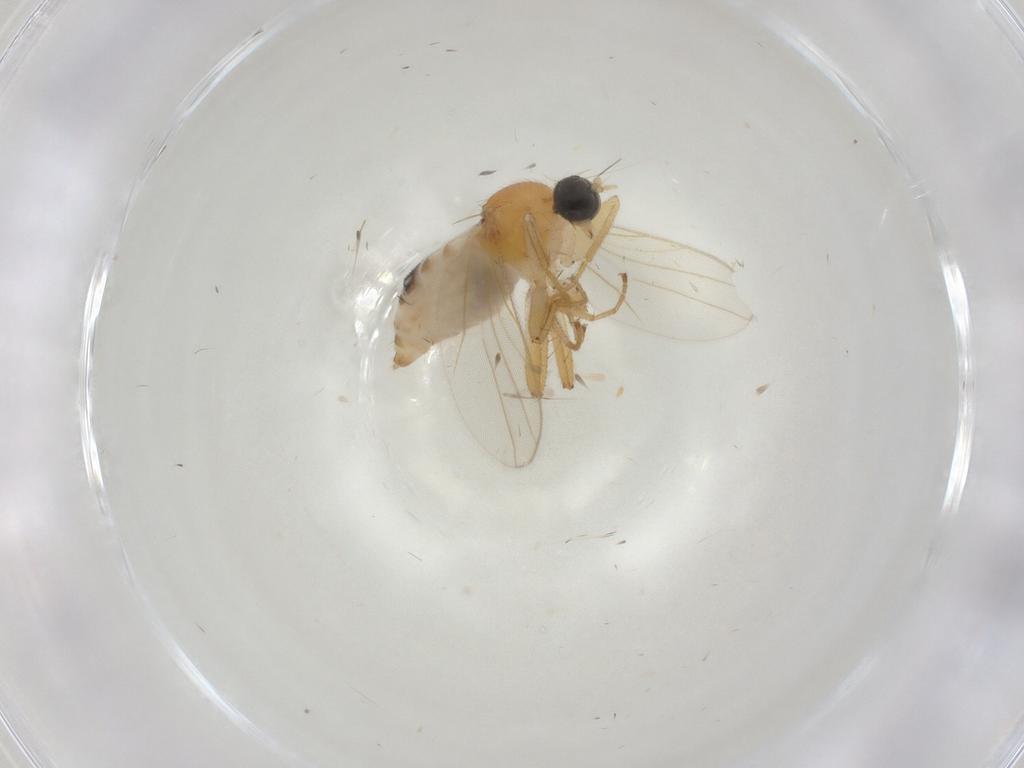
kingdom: Animalia
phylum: Arthropoda
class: Insecta
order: Diptera
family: Hybotidae
